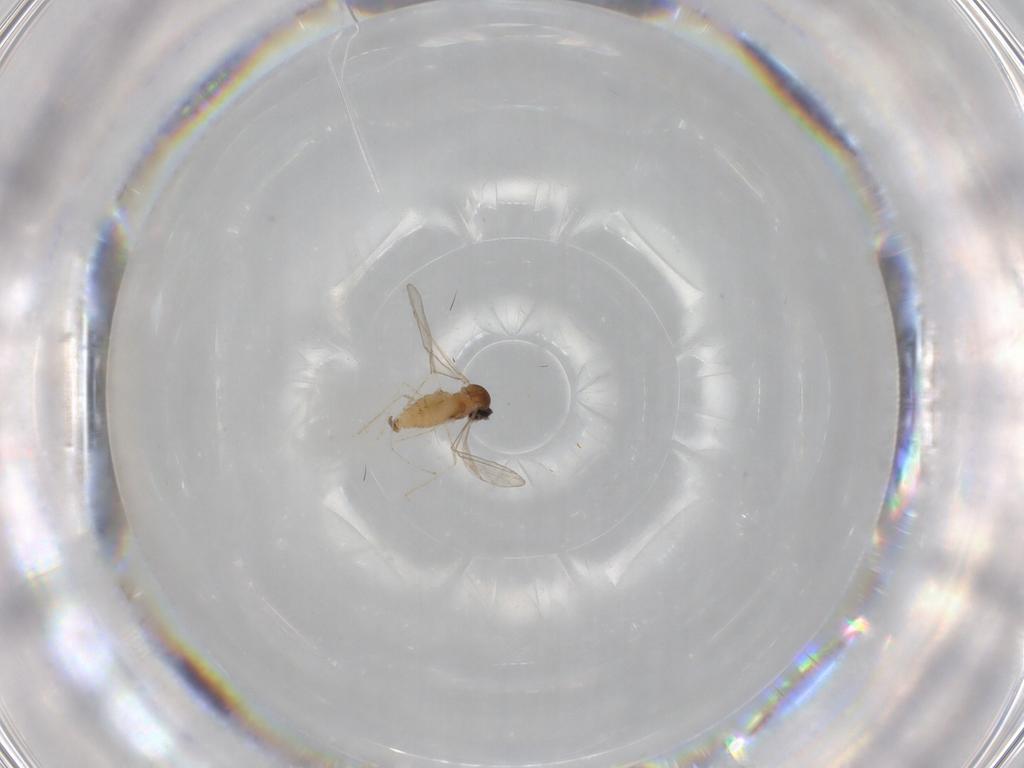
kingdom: Animalia
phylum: Arthropoda
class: Insecta
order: Diptera
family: Cecidomyiidae
